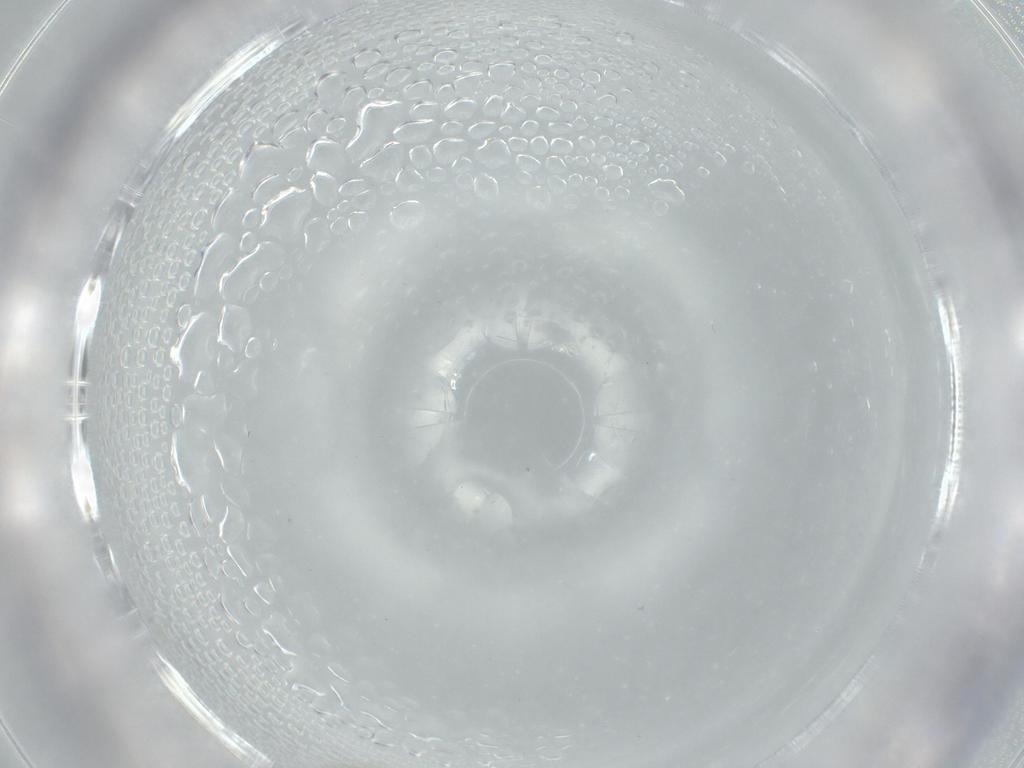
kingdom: Animalia
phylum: Arthropoda
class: Insecta
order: Diptera
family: Cecidomyiidae
